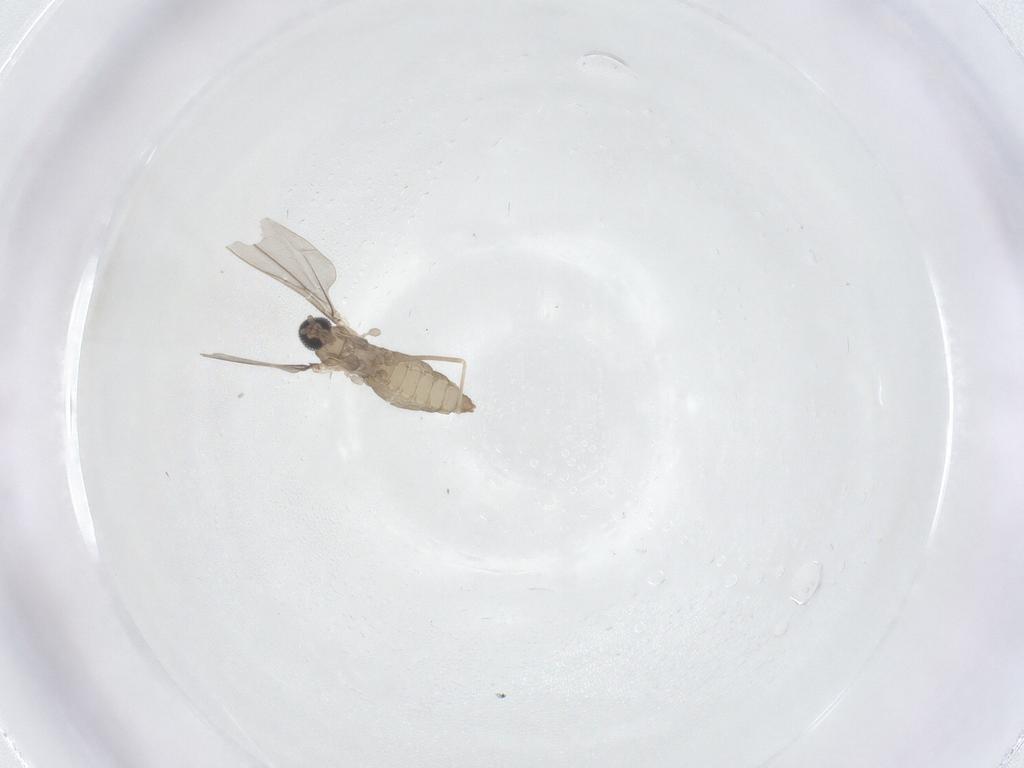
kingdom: Animalia
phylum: Arthropoda
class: Insecta
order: Diptera
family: Cecidomyiidae
